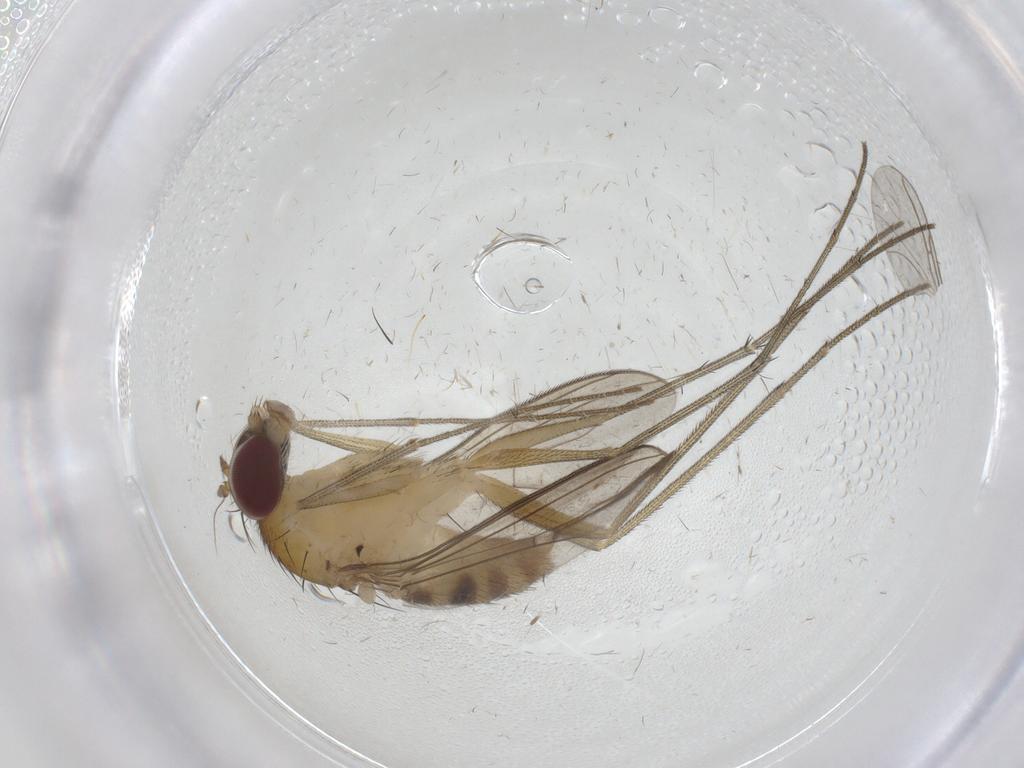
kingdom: Animalia
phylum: Arthropoda
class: Insecta
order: Diptera
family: Dolichopodidae
